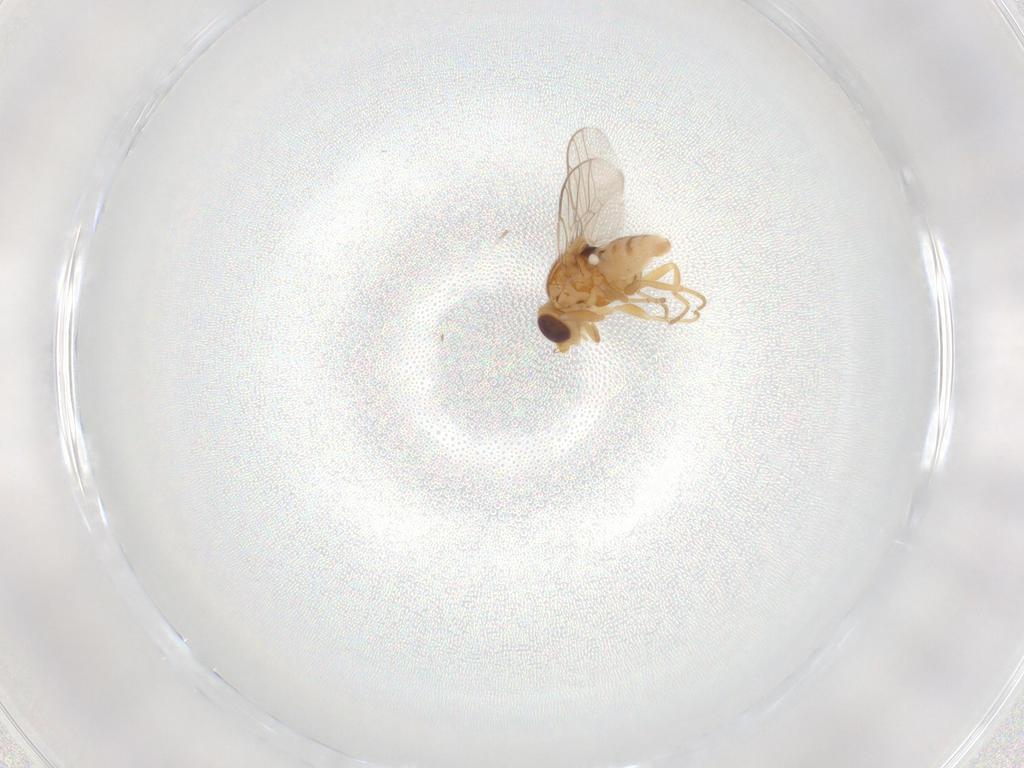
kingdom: Animalia
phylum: Arthropoda
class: Insecta
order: Diptera
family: Chloropidae
